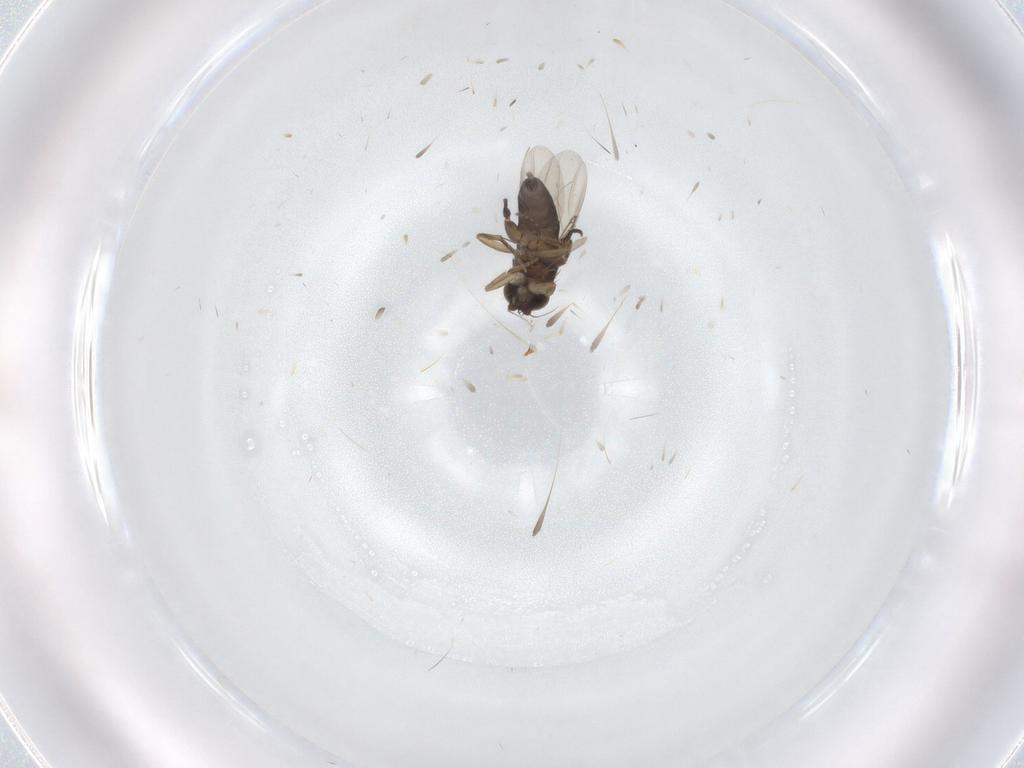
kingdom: Animalia
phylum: Arthropoda
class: Insecta
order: Diptera
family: Phoridae
